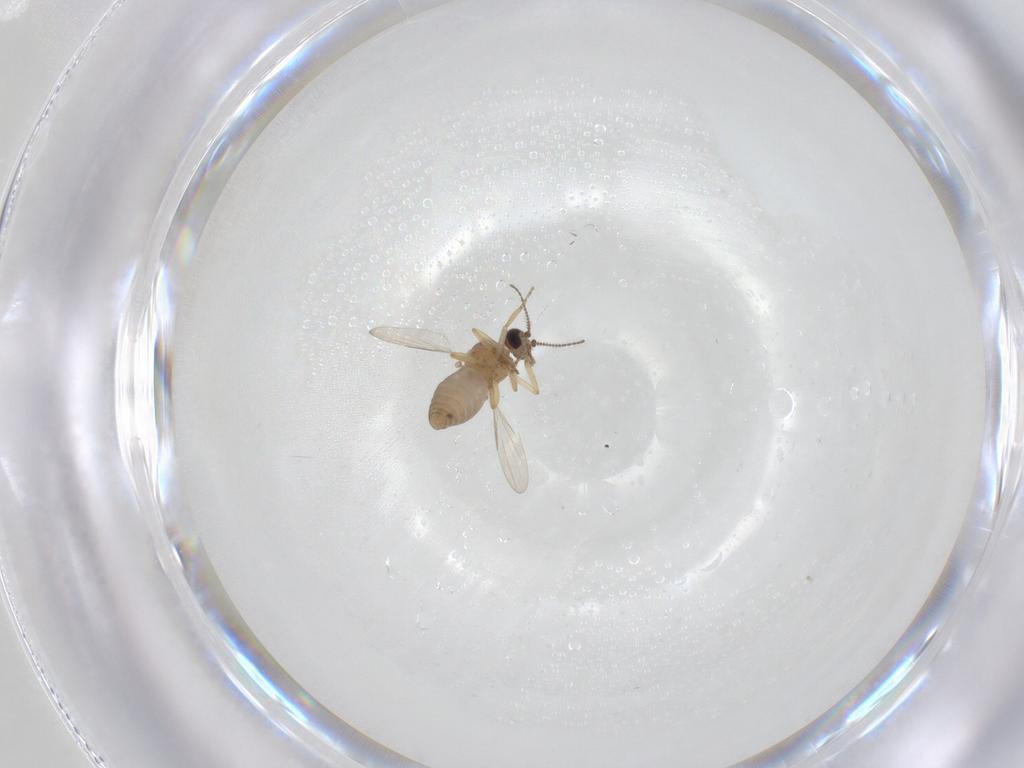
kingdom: Animalia
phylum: Arthropoda
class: Insecta
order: Diptera
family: Ceratopogonidae
